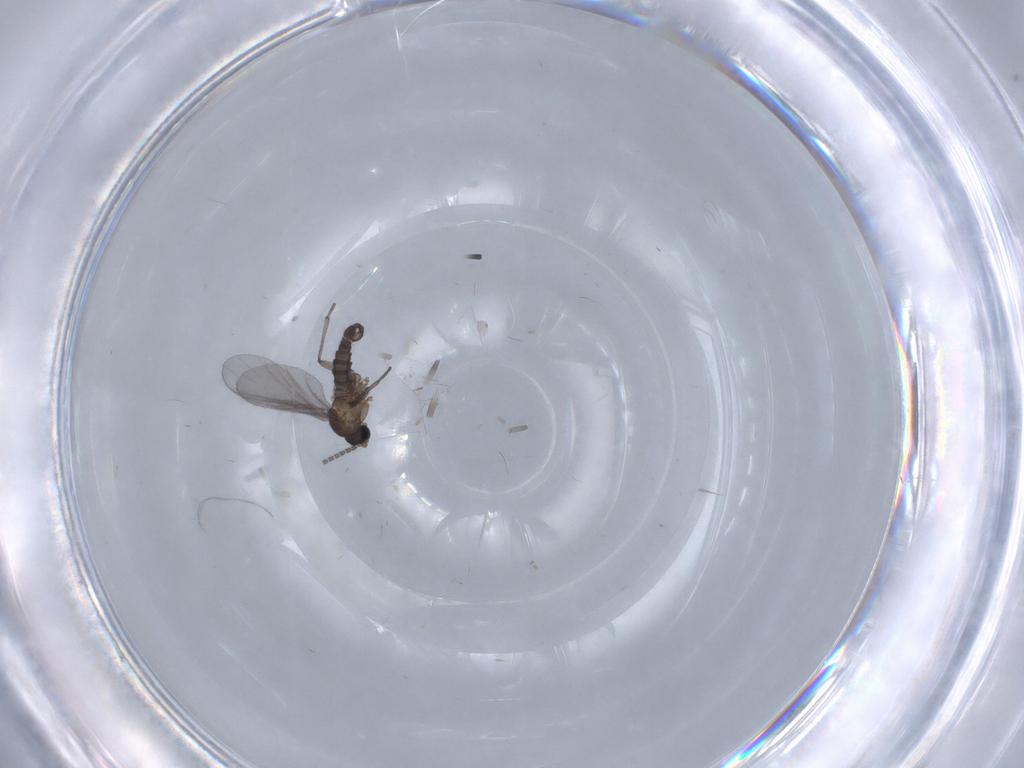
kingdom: Animalia
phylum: Arthropoda
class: Insecta
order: Diptera
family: Sciaridae
